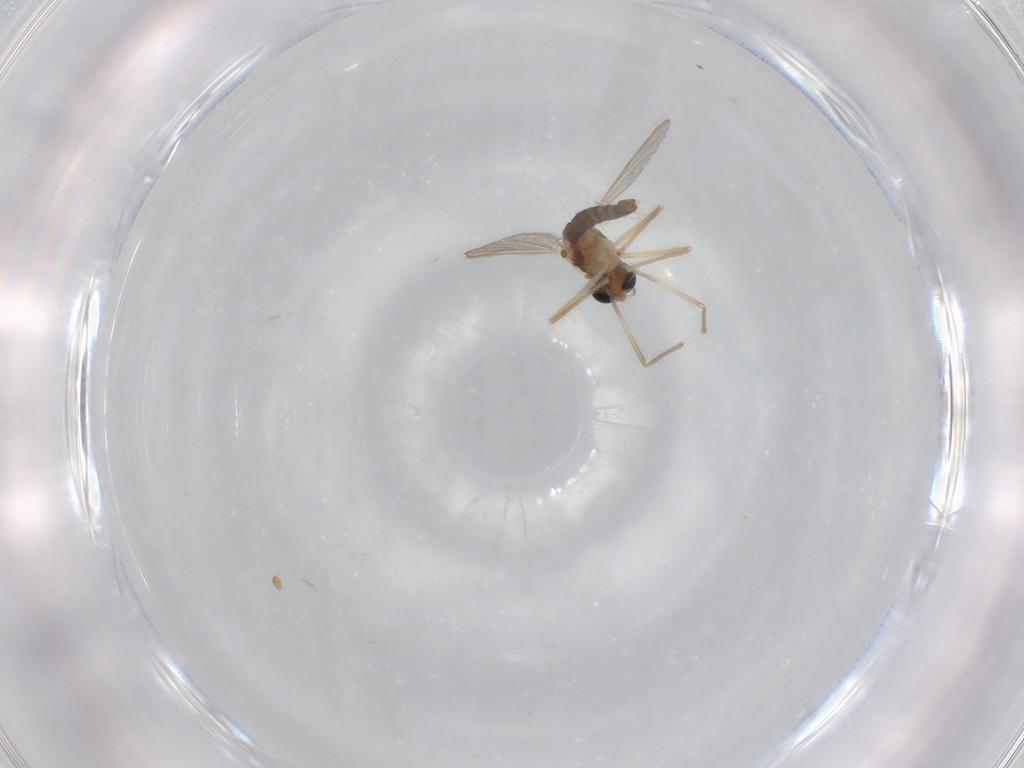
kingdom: Animalia
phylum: Arthropoda
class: Insecta
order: Diptera
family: Chironomidae
